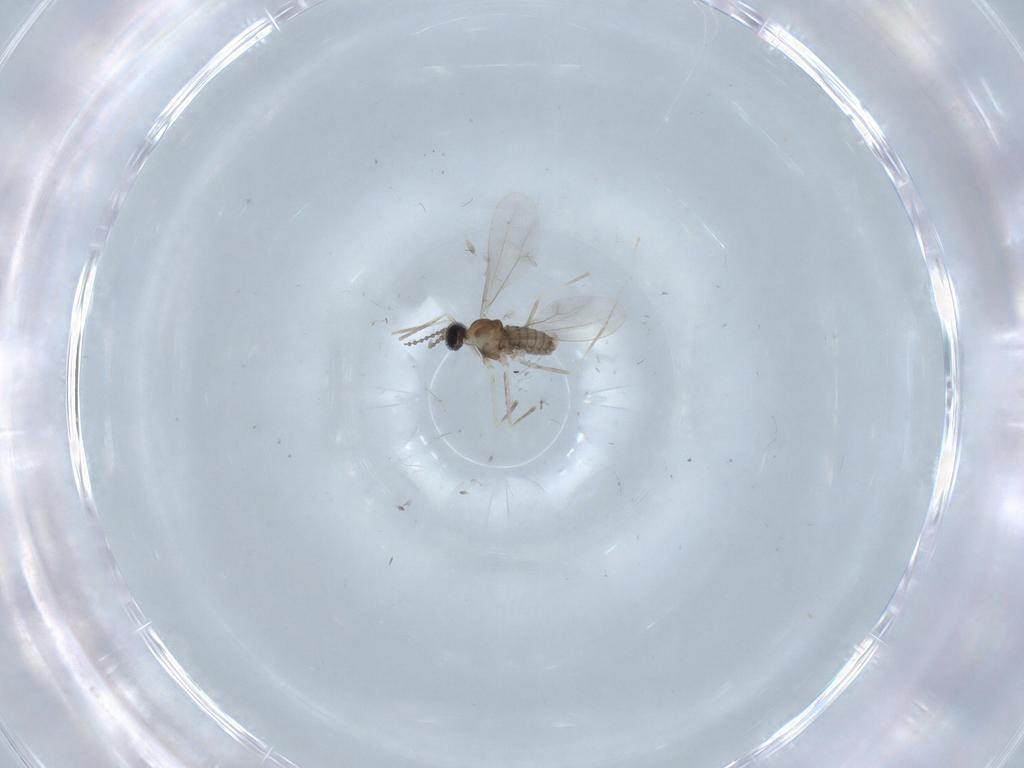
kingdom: Animalia
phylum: Arthropoda
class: Insecta
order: Diptera
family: Cecidomyiidae
